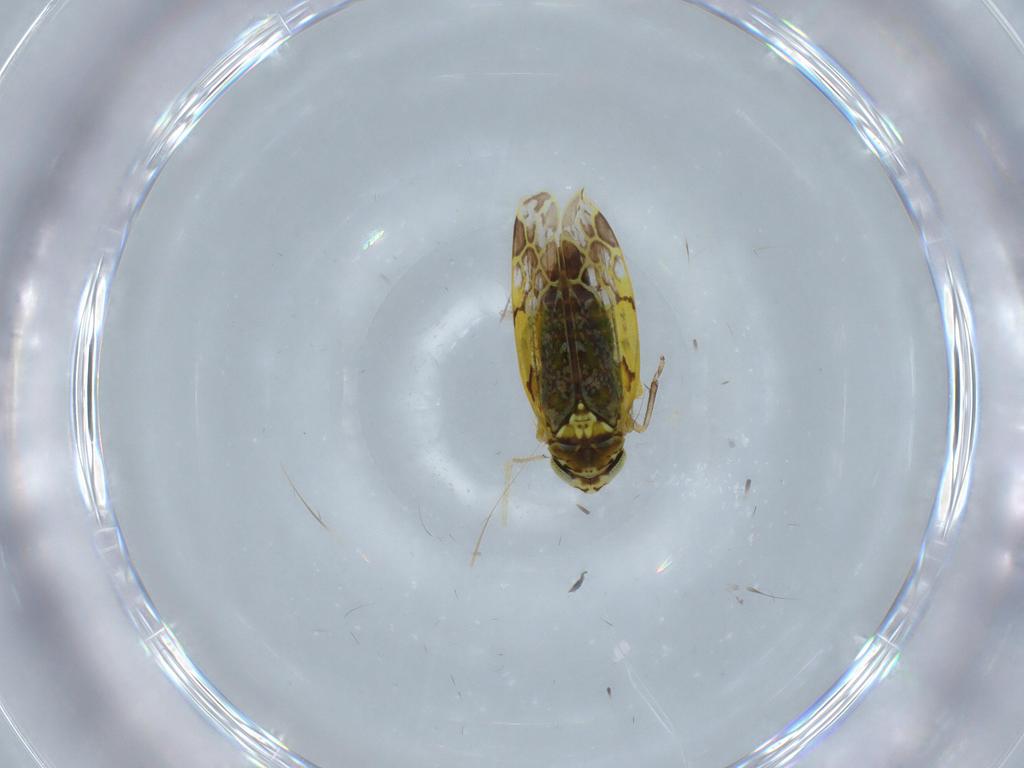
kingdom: Animalia
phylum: Arthropoda
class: Insecta
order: Hemiptera
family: Cicadellidae
